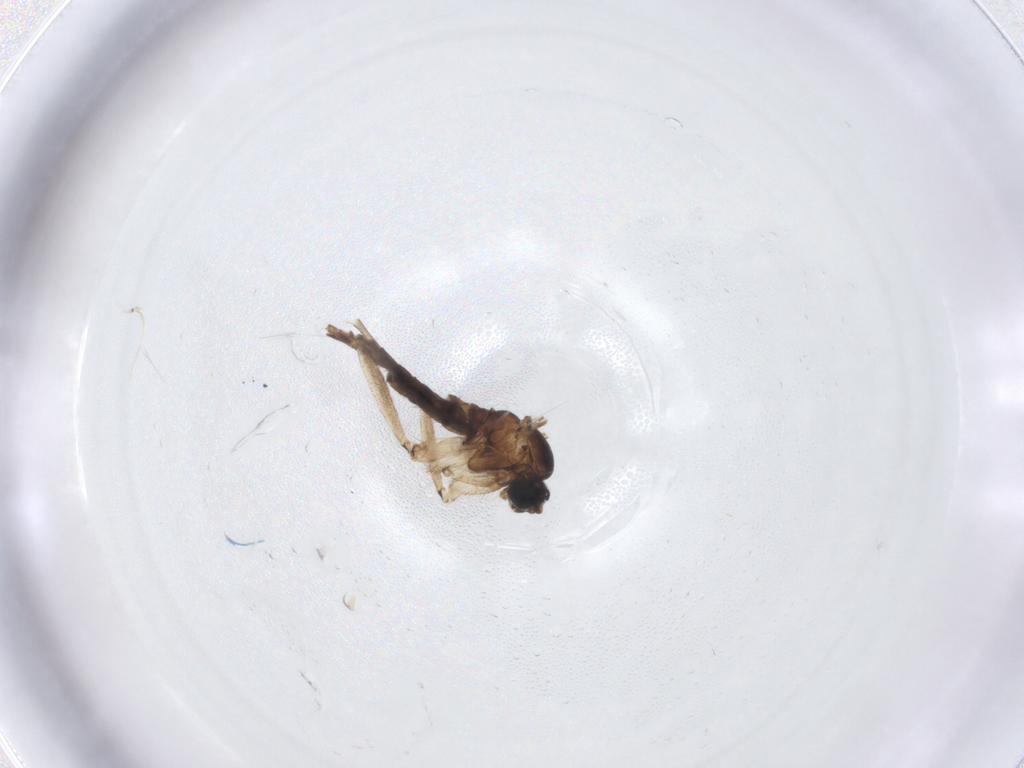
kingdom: Animalia
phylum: Arthropoda
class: Insecta
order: Diptera
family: Sciaridae
